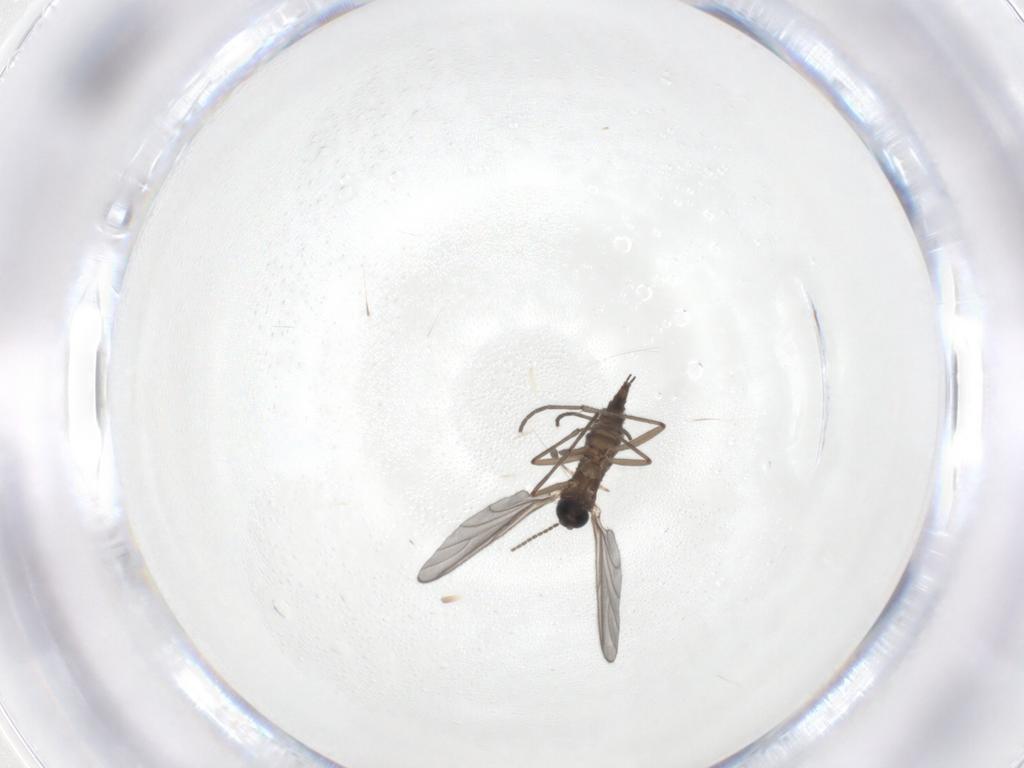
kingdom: Animalia
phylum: Arthropoda
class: Insecta
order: Diptera
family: Sciaridae
